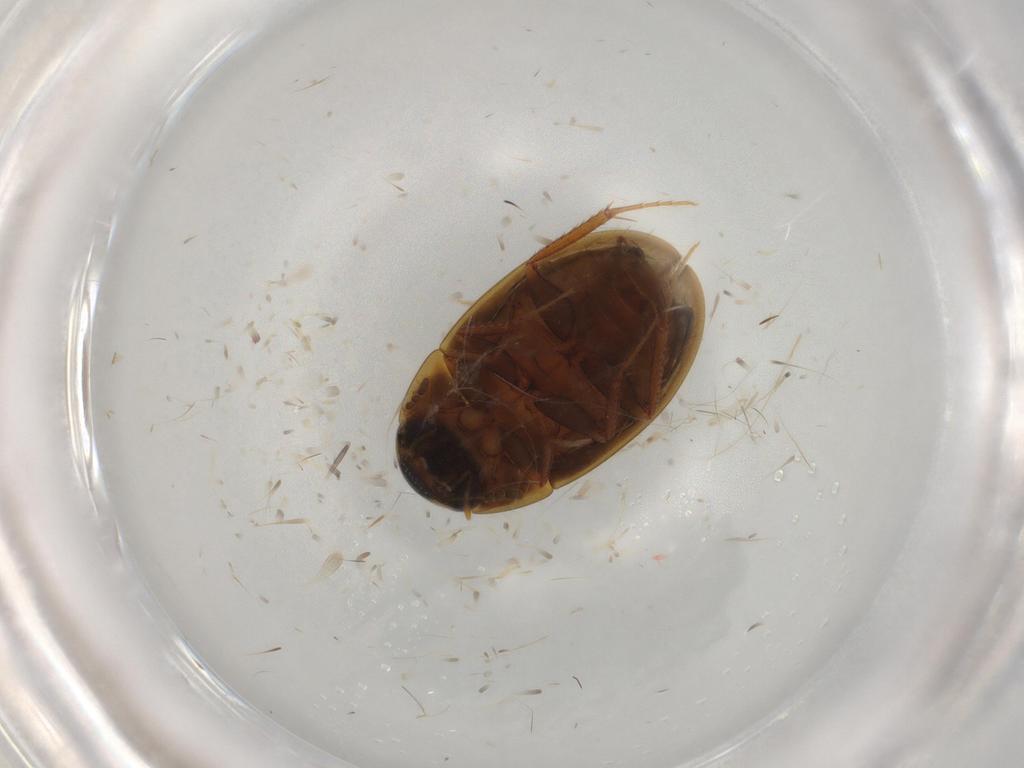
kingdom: Animalia
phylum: Arthropoda
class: Insecta
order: Coleoptera
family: Hydrophilidae
